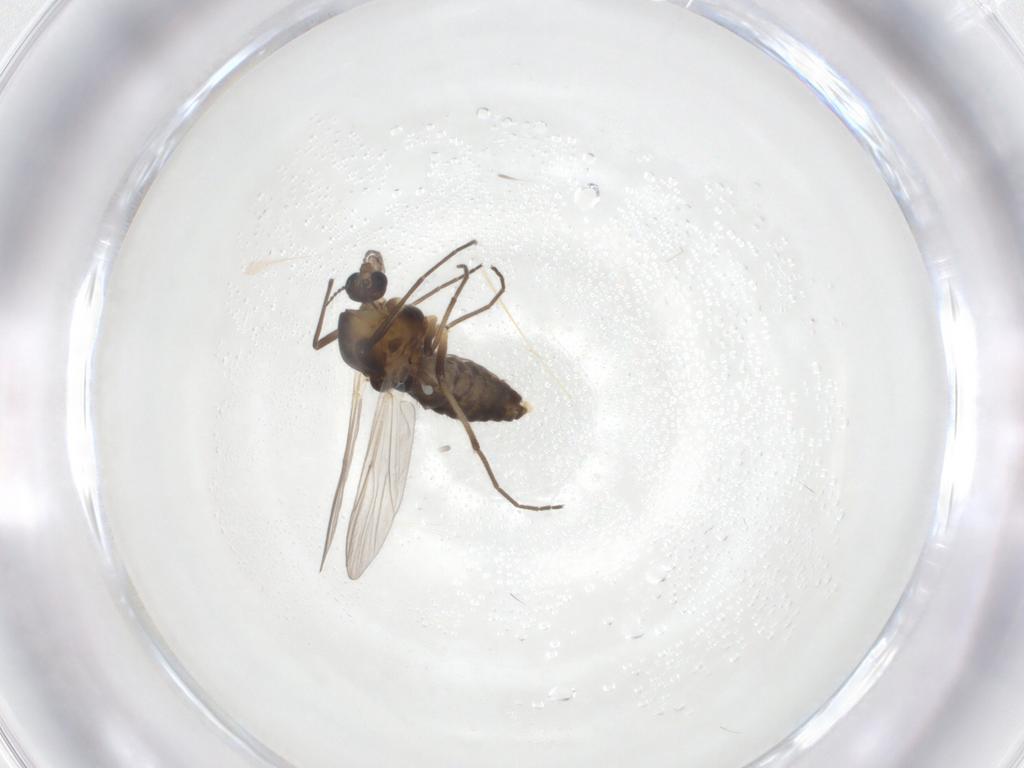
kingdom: Animalia
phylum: Arthropoda
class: Insecta
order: Diptera
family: Chironomidae
